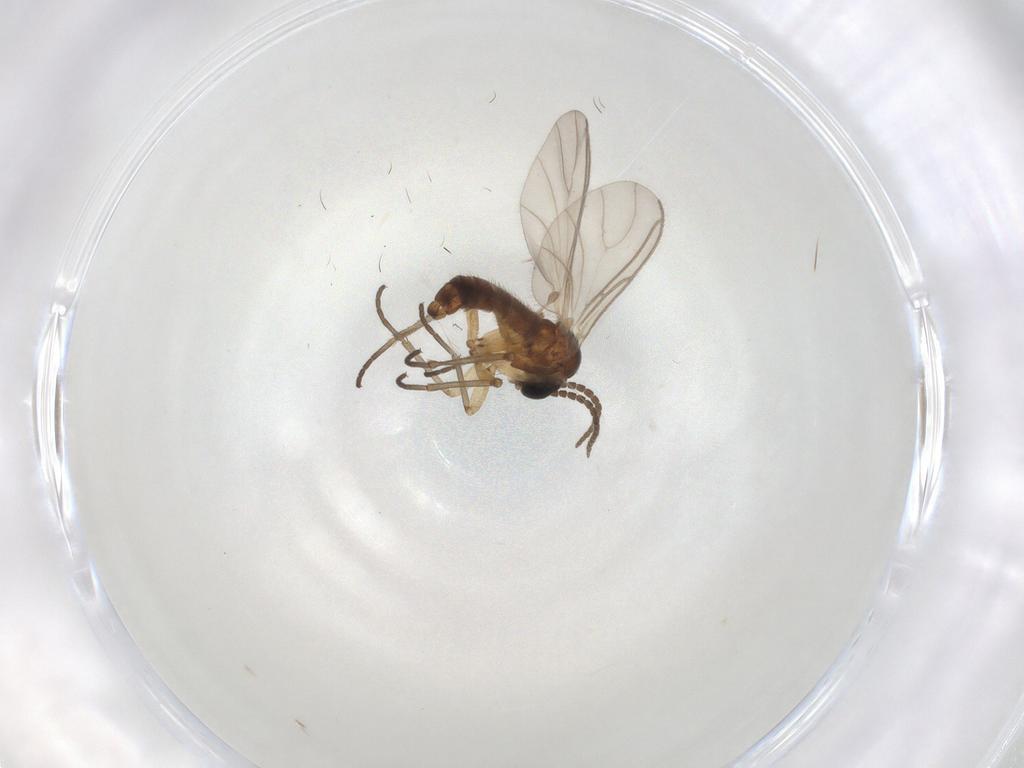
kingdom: Animalia
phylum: Arthropoda
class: Insecta
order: Diptera
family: Sciaridae
